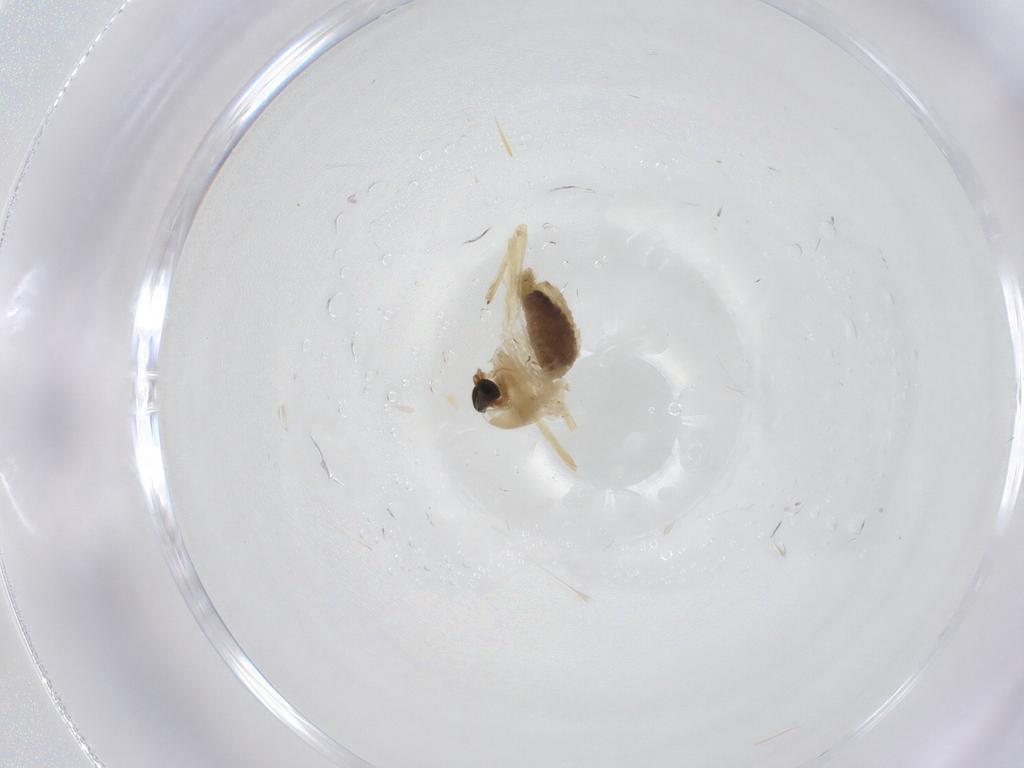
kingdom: Animalia
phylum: Arthropoda
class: Insecta
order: Diptera
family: Chironomidae
